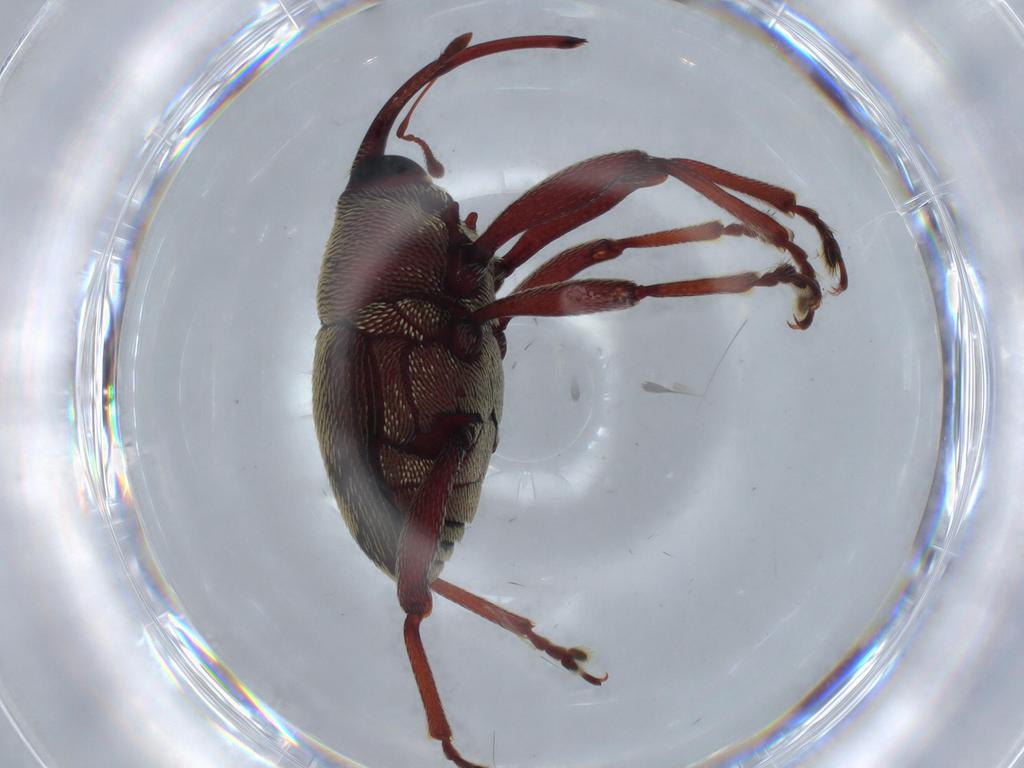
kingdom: Animalia
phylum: Arthropoda
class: Insecta
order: Coleoptera
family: Curculionidae
